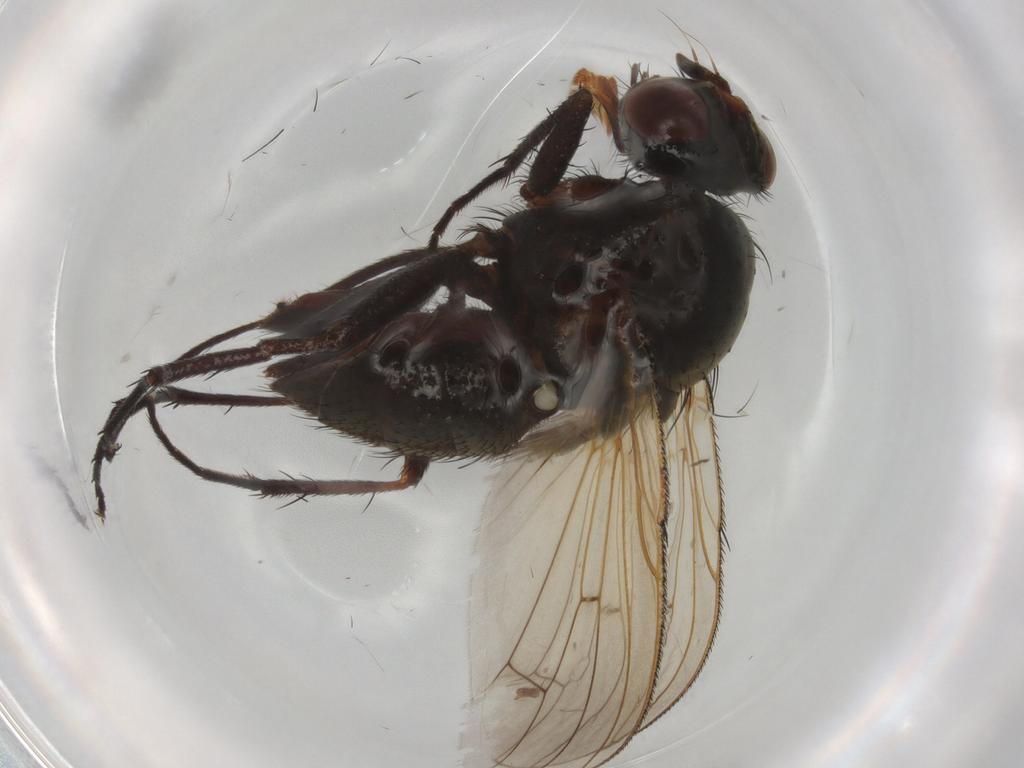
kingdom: Animalia
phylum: Arthropoda
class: Insecta
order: Diptera
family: Anthomyiidae
